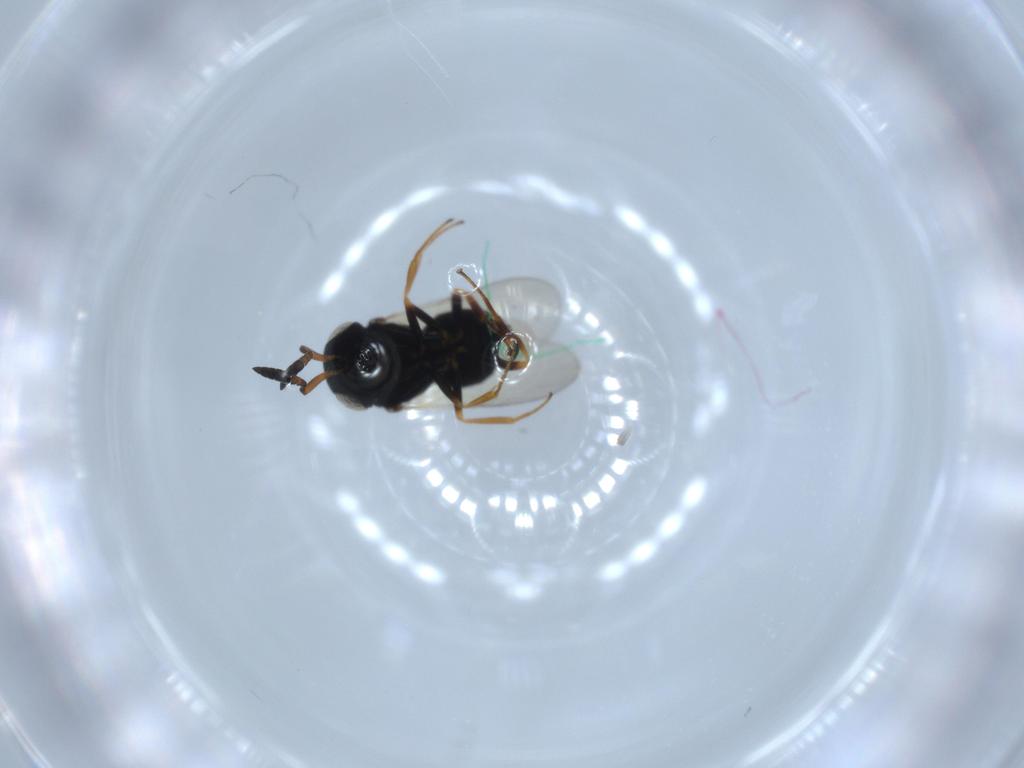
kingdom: Animalia
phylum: Arthropoda
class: Insecta
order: Hymenoptera
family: Scelionidae
